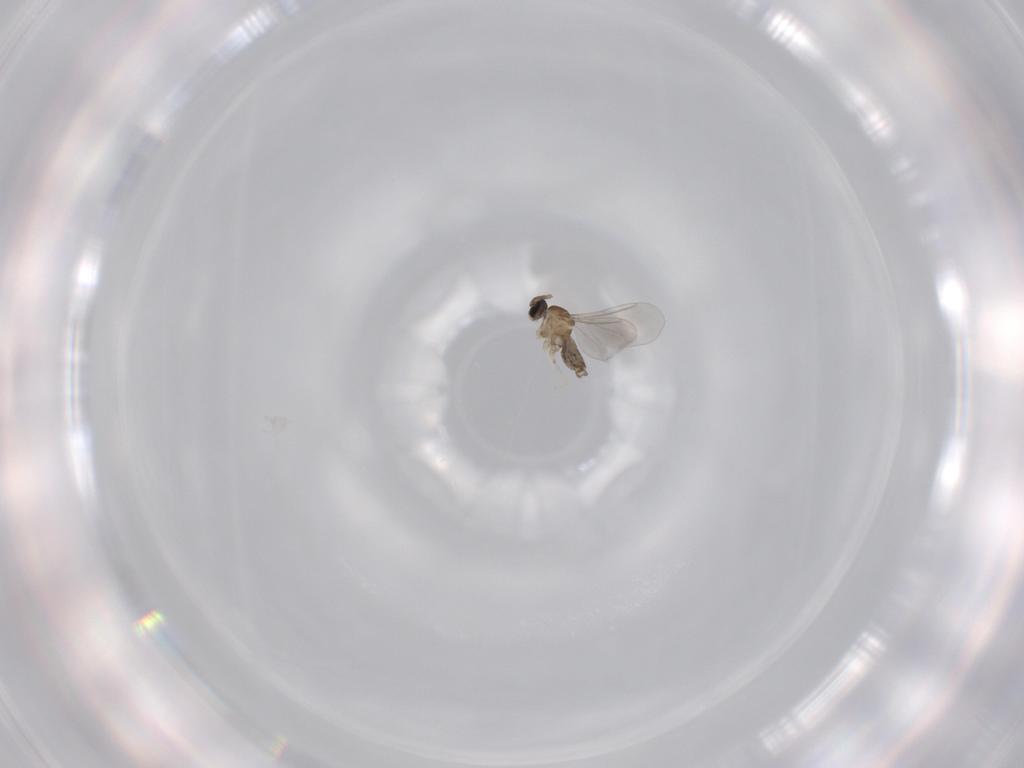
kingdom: Animalia
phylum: Arthropoda
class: Insecta
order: Diptera
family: Cecidomyiidae
